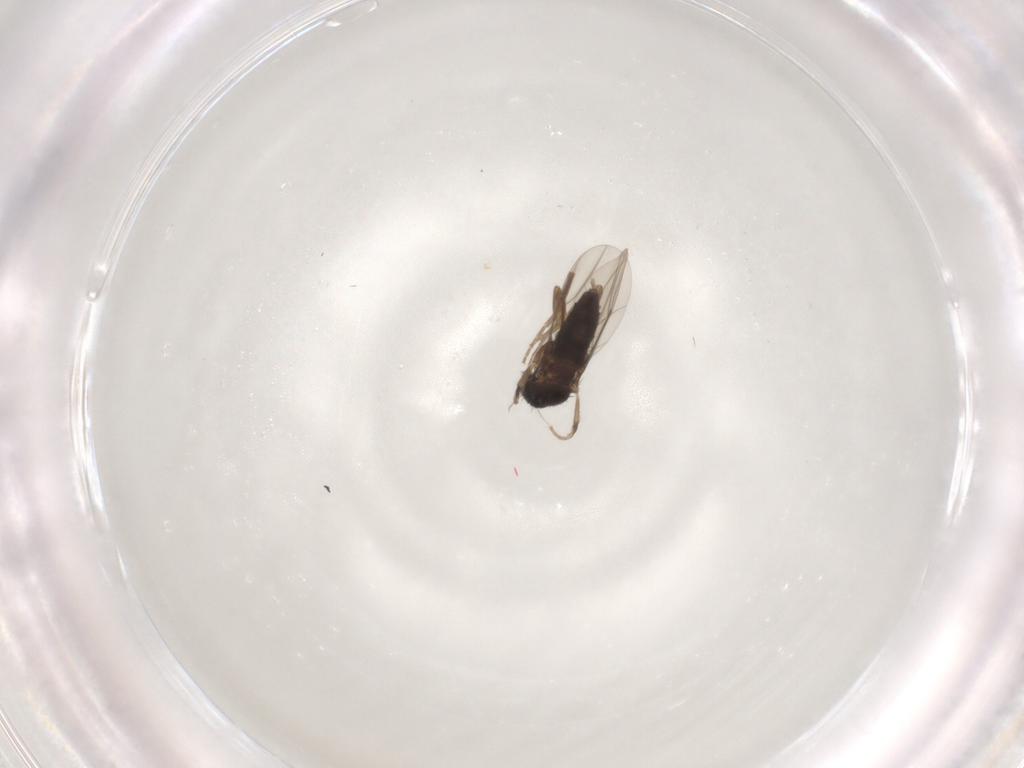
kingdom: Animalia
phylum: Arthropoda
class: Insecta
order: Diptera
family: Phoridae
